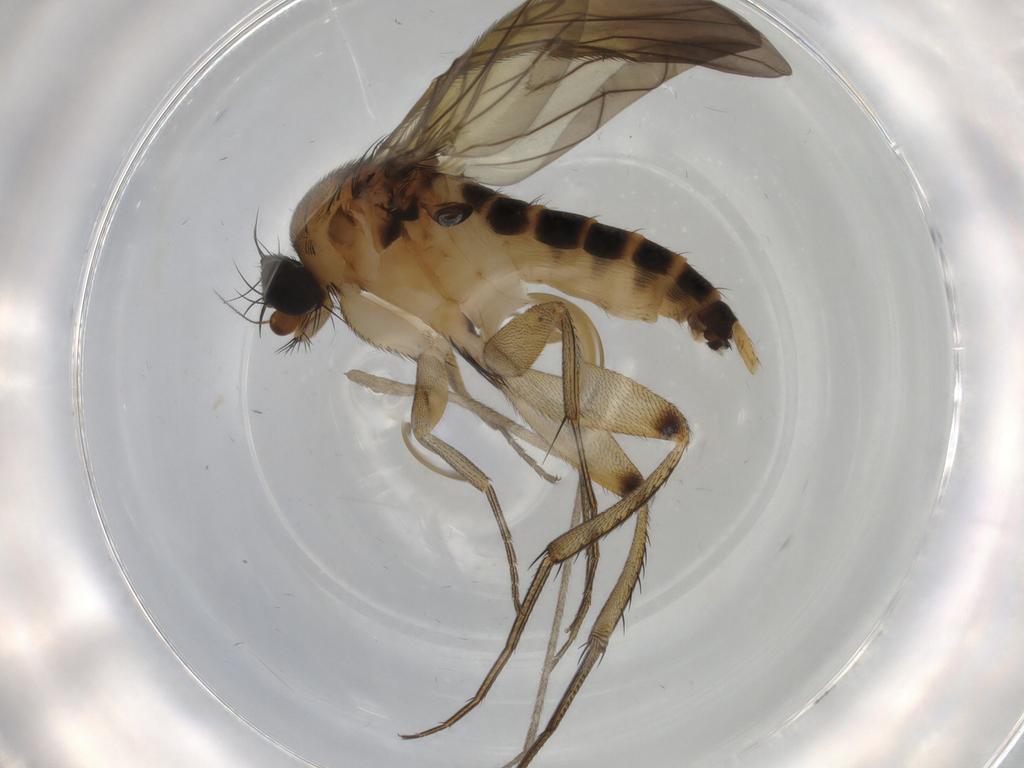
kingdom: Animalia
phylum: Arthropoda
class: Insecta
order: Diptera
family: Limoniidae
